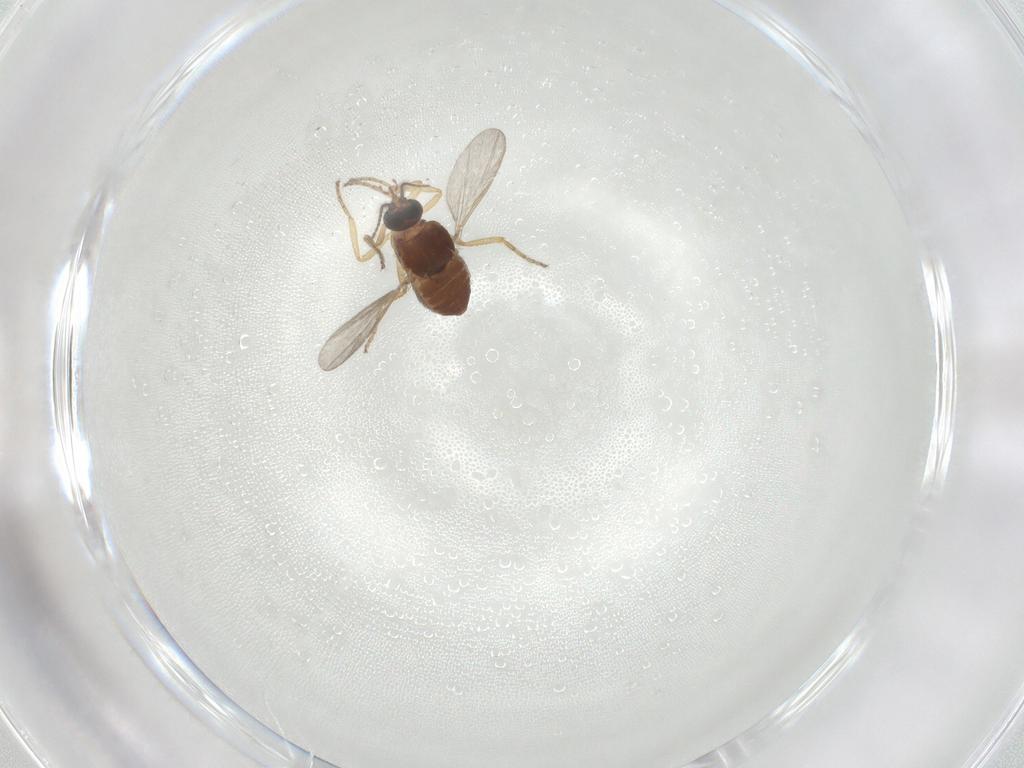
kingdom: Animalia
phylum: Arthropoda
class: Insecta
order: Diptera
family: Ceratopogonidae
